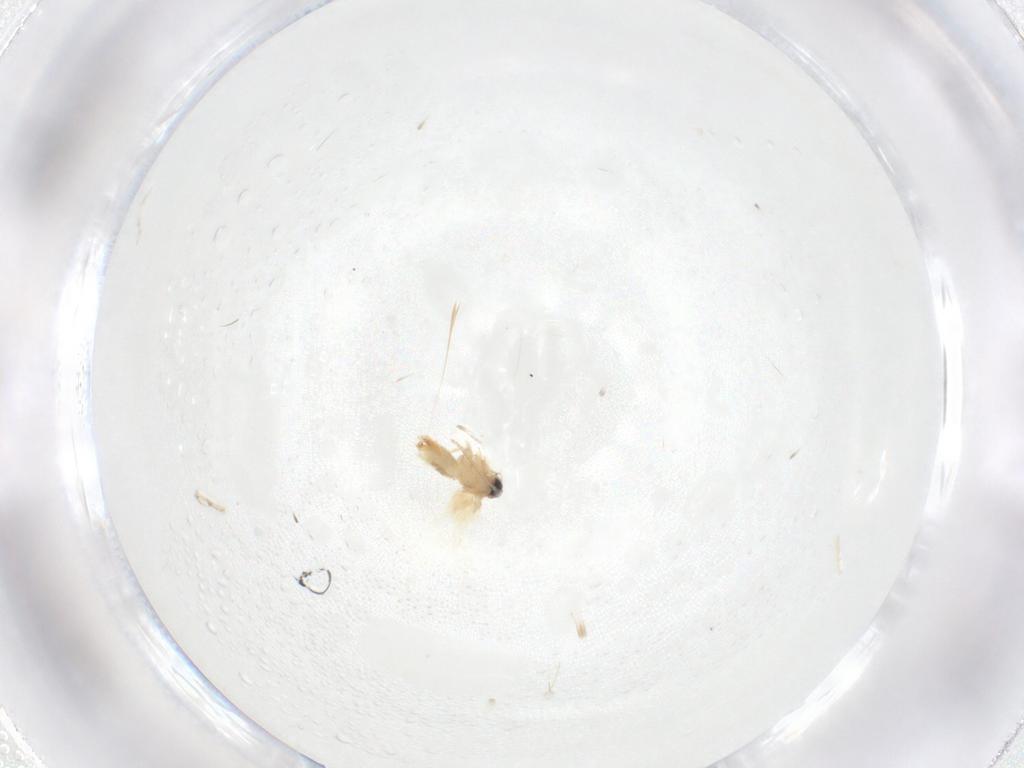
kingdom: Animalia
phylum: Arthropoda
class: Insecta
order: Lepidoptera
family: Crambidae
